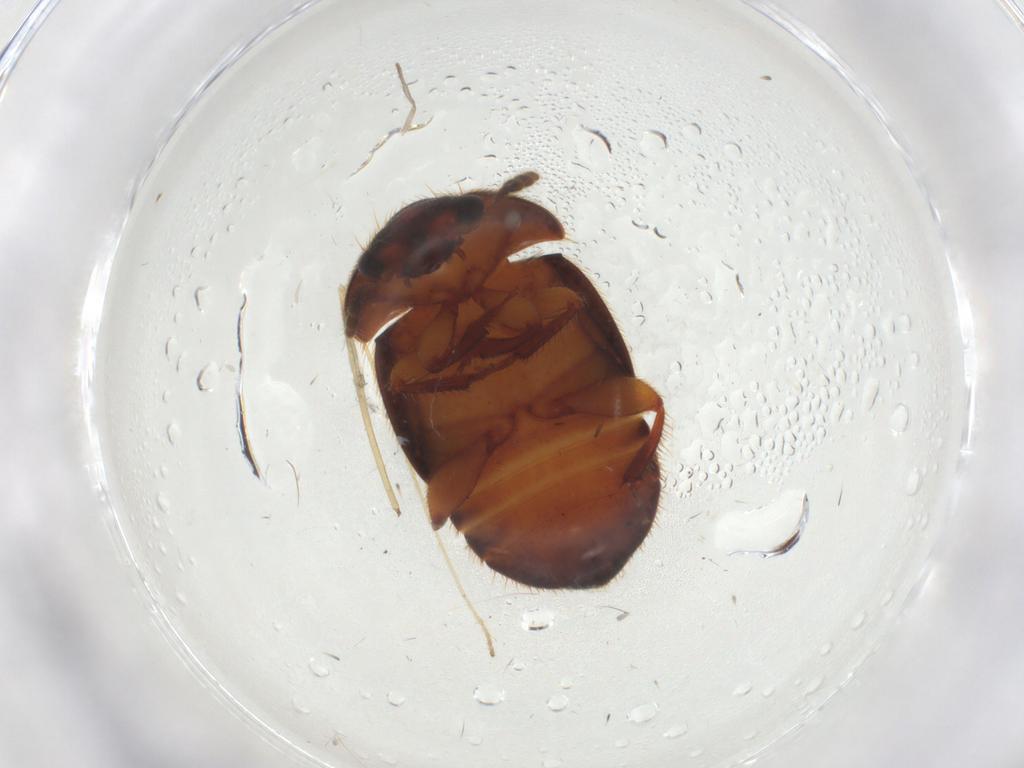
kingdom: Animalia
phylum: Arthropoda
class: Insecta
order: Coleoptera
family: Nitidulidae
